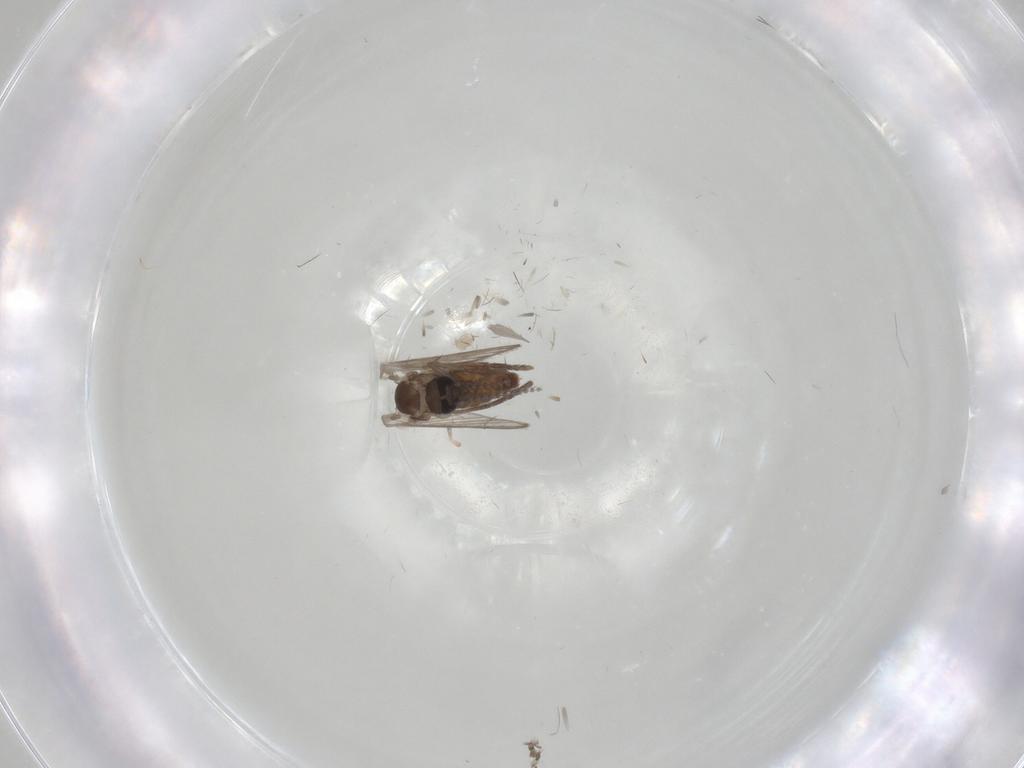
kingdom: Animalia
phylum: Arthropoda
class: Insecta
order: Diptera
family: Psychodidae
